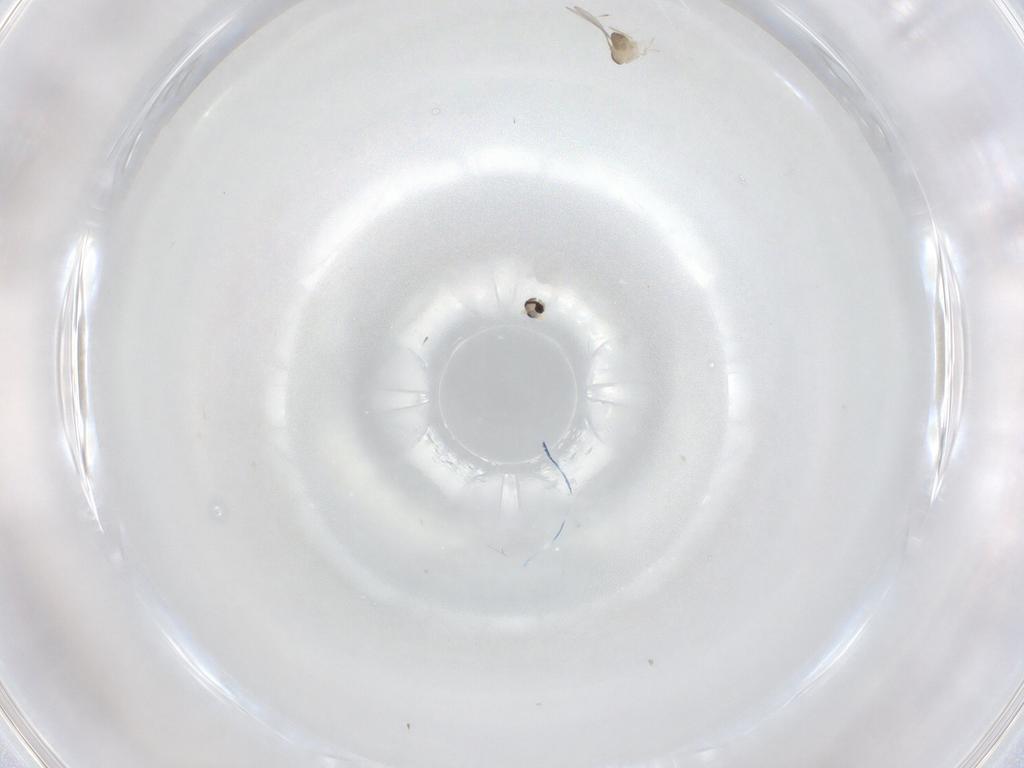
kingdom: Animalia
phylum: Arthropoda
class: Insecta
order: Diptera
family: Cecidomyiidae
